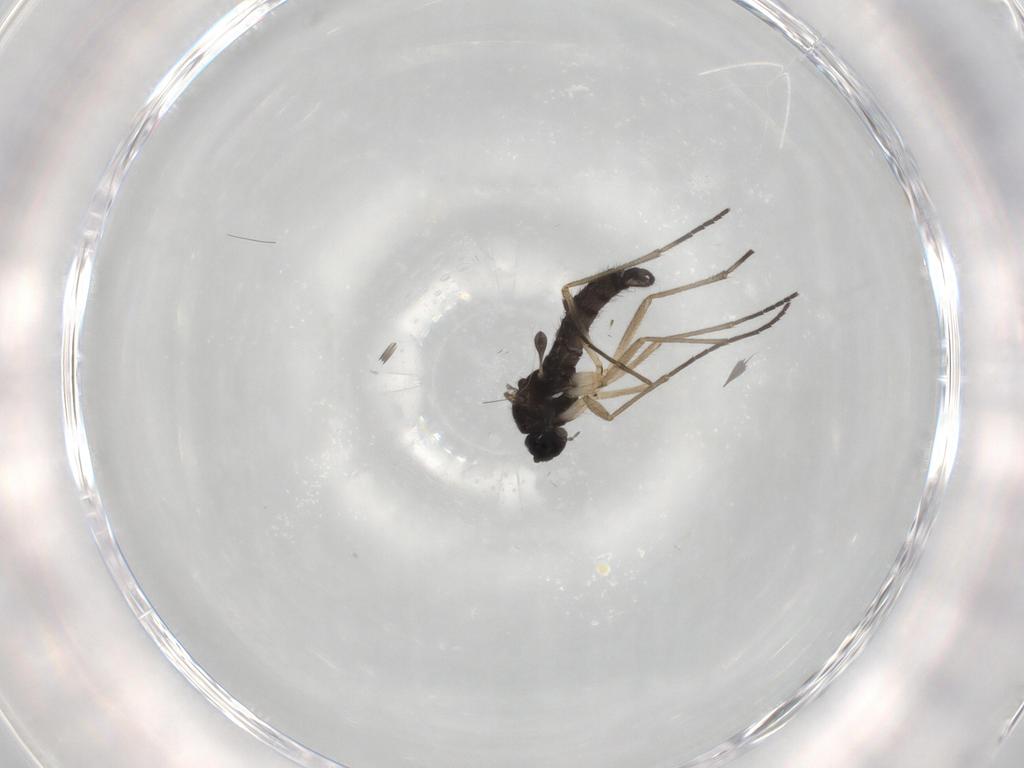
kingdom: Animalia
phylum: Arthropoda
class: Insecta
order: Diptera
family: Sciaridae
